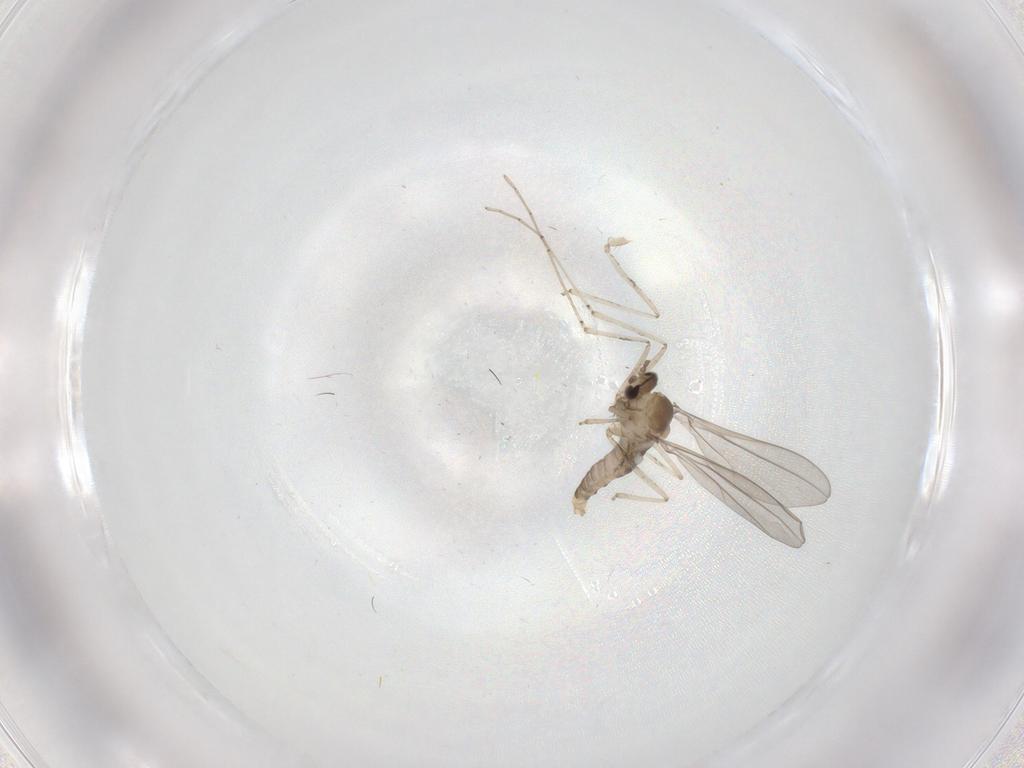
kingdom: Animalia
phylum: Arthropoda
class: Insecta
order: Diptera
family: Cecidomyiidae
